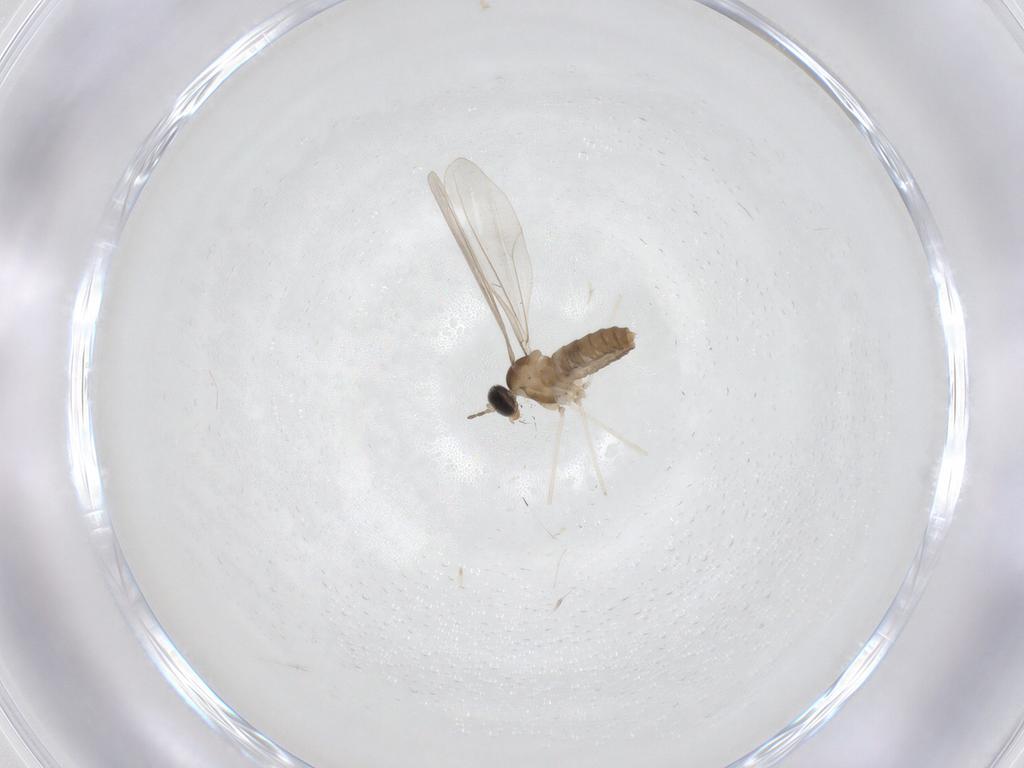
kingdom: Animalia
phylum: Arthropoda
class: Insecta
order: Diptera
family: Cecidomyiidae
